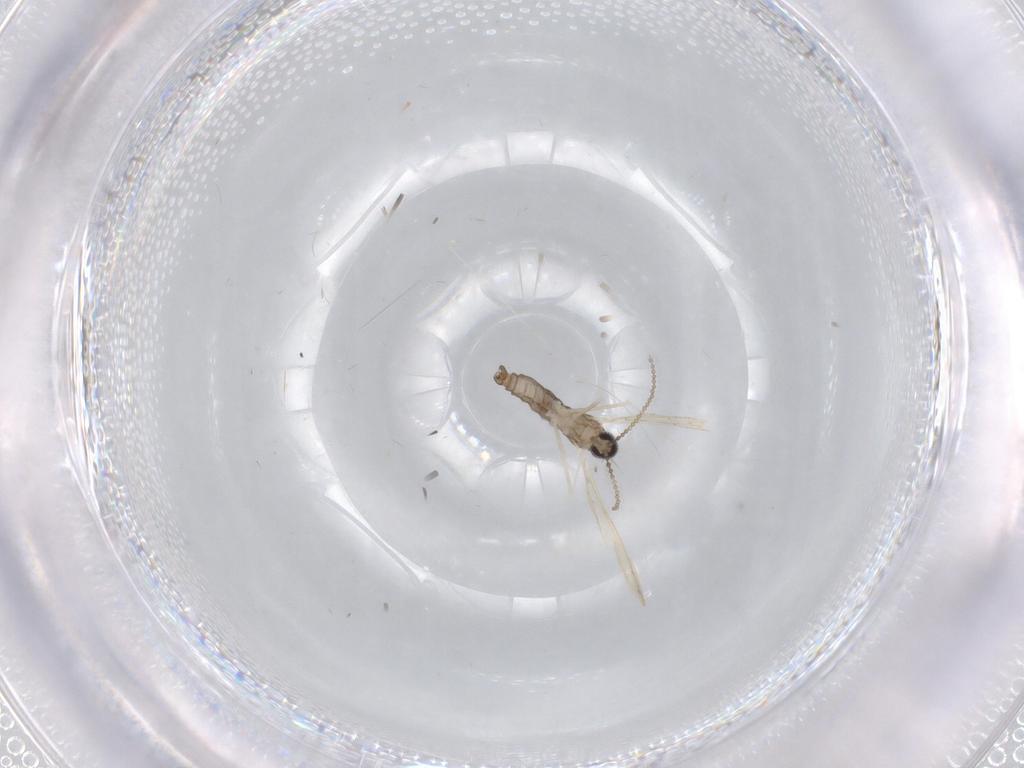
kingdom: Animalia
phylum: Arthropoda
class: Insecta
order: Diptera
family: Cecidomyiidae
